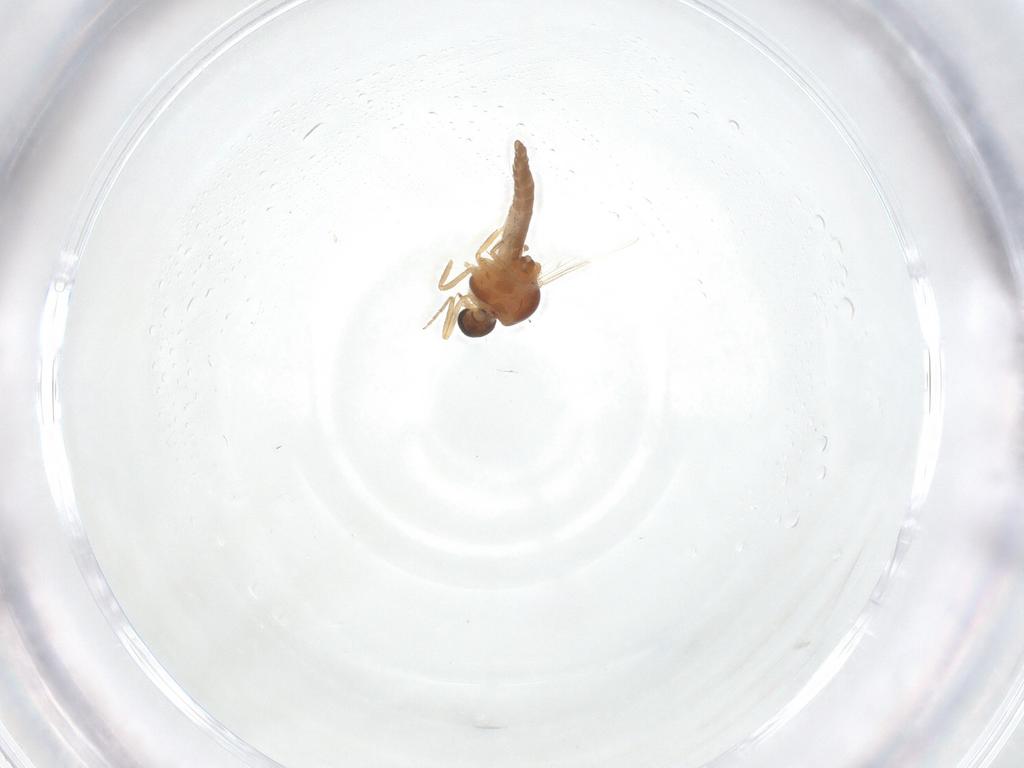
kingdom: Animalia
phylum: Arthropoda
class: Insecta
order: Diptera
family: Ceratopogonidae
